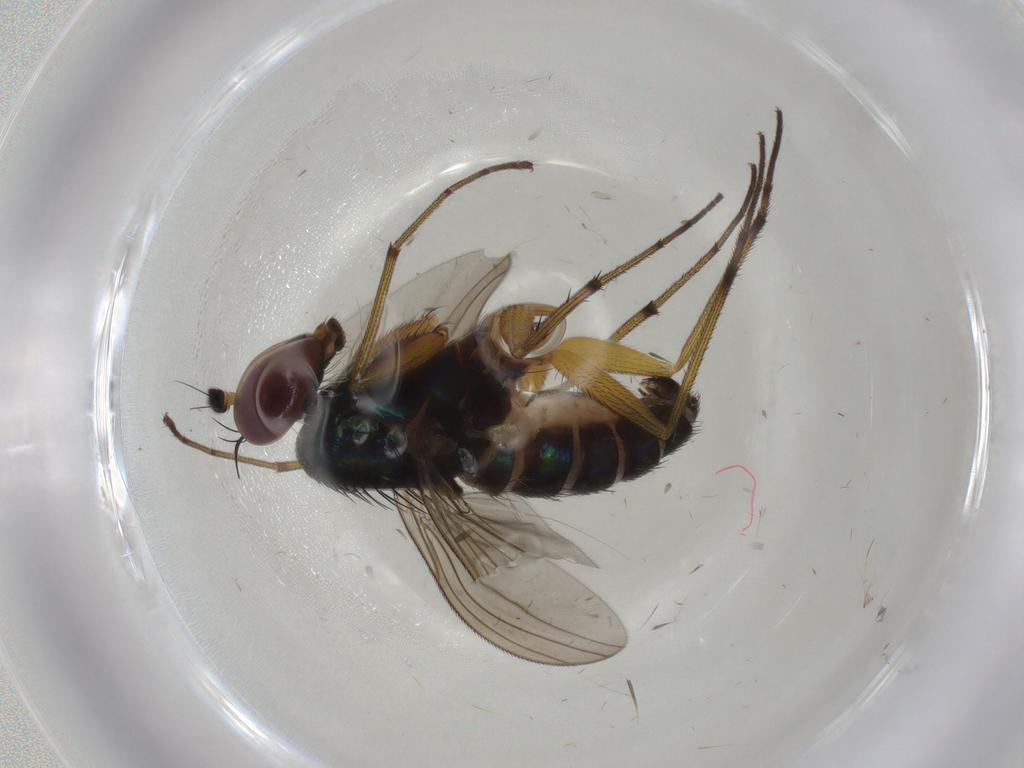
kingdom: Animalia
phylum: Arthropoda
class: Insecta
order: Diptera
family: Dolichopodidae
